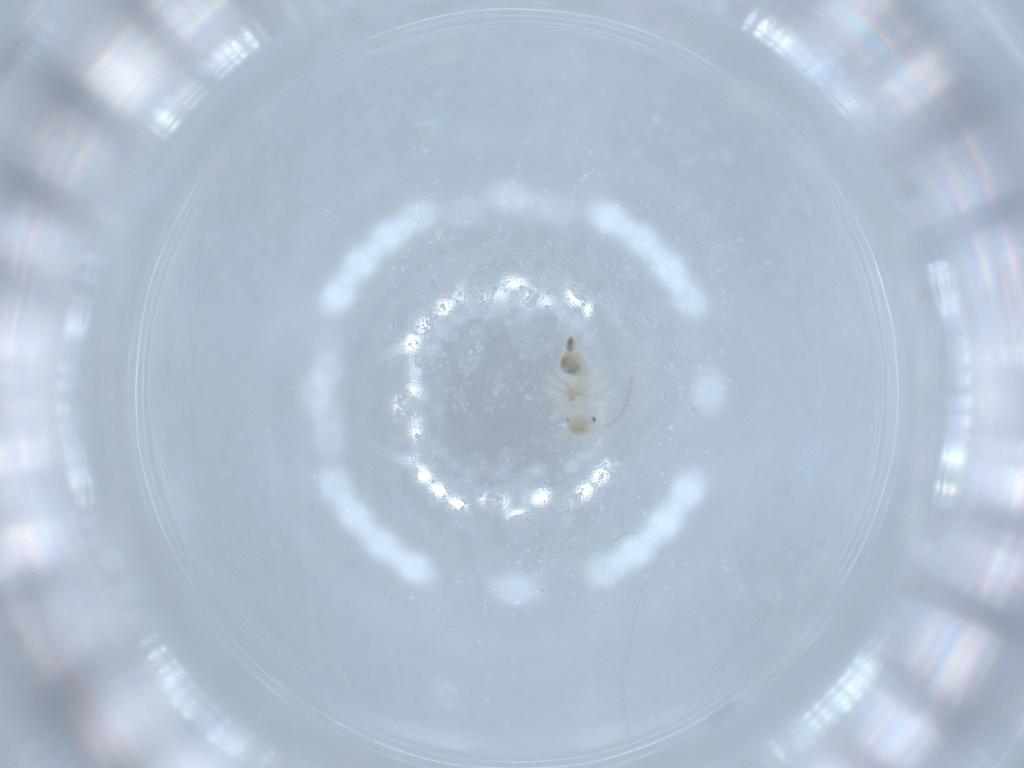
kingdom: Animalia
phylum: Arthropoda
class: Insecta
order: Psocodea
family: Amphipsocidae
